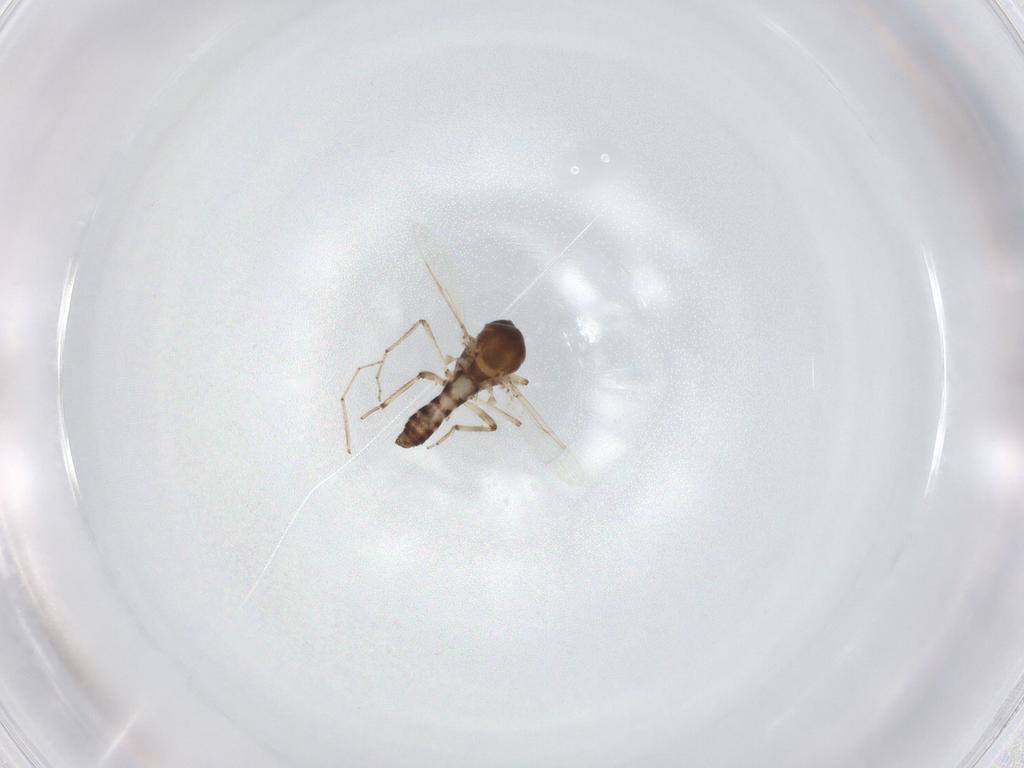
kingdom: Animalia
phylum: Arthropoda
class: Insecta
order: Diptera
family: Ceratopogonidae
